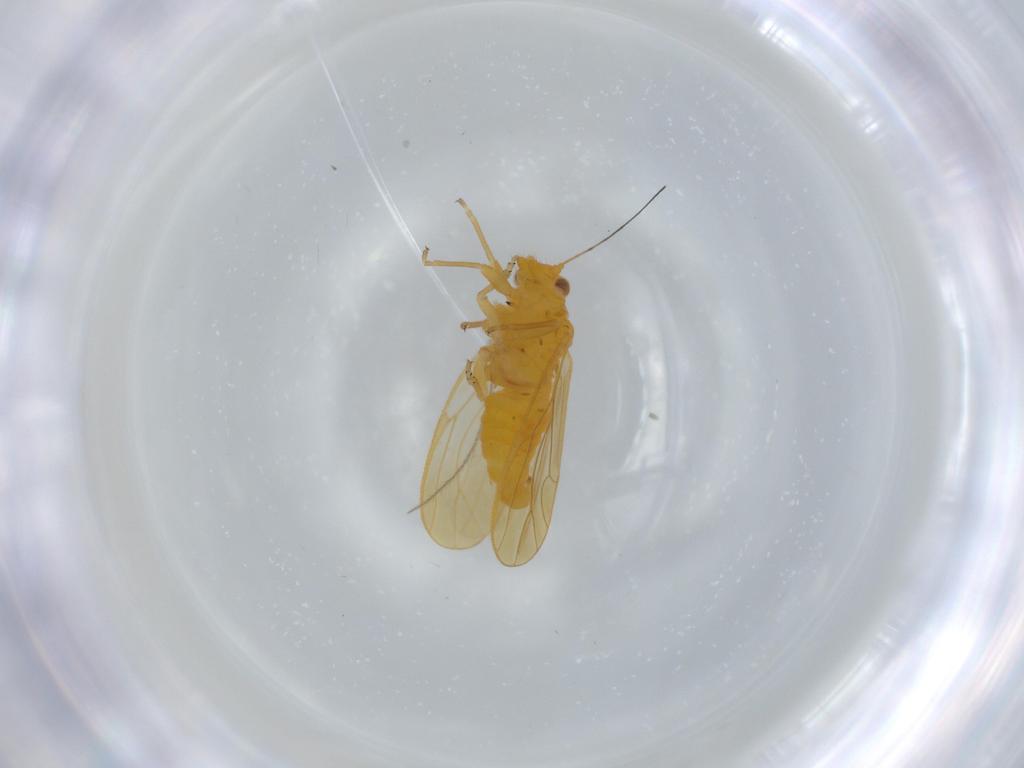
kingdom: Animalia
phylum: Arthropoda
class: Insecta
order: Hemiptera
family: Psyllidae
